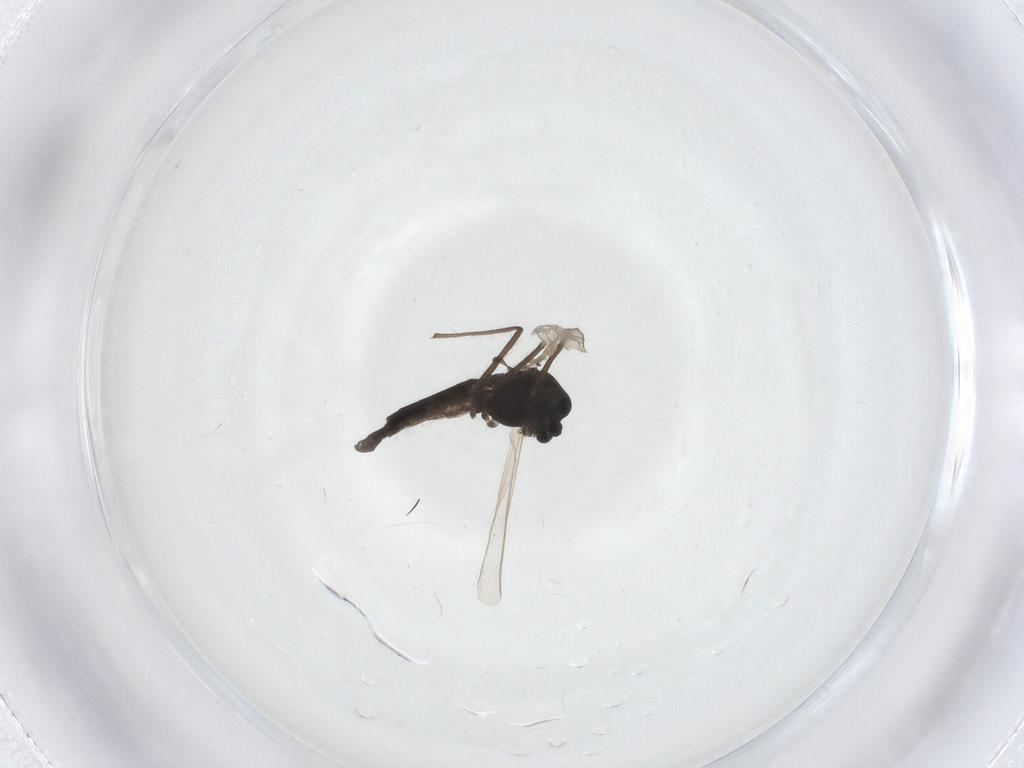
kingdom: Animalia
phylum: Arthropoda
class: Insecta
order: Diptera
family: Chironomidae
